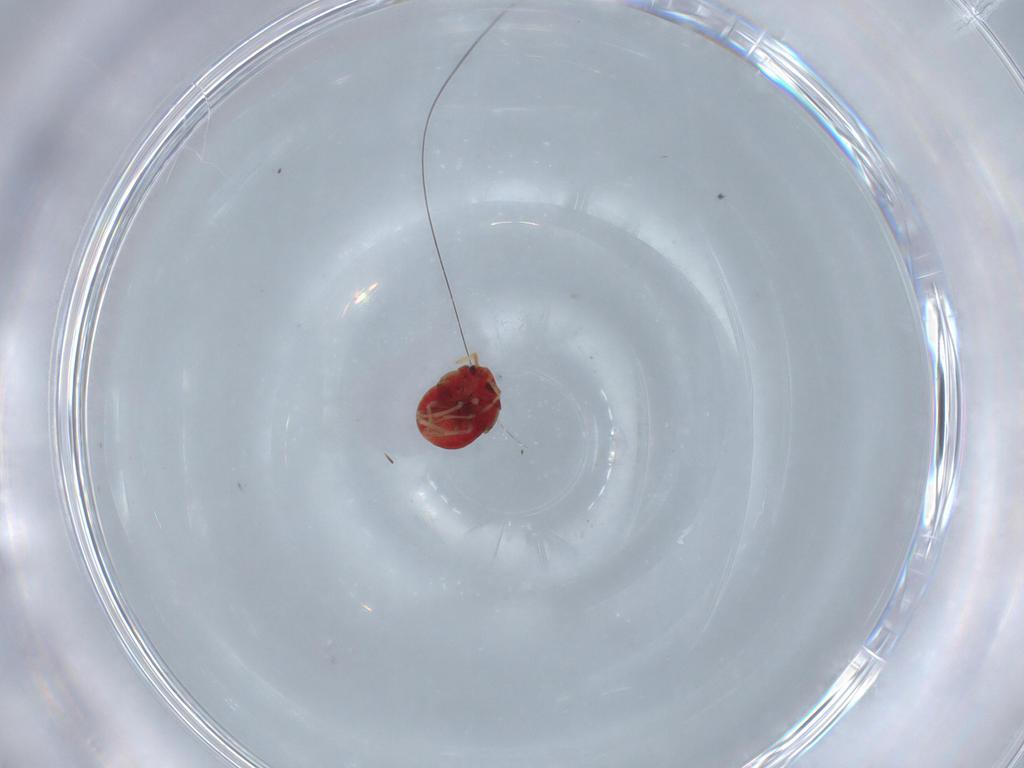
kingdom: Animalia
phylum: Arthropoda
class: Insecta
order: Hemiptera
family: Anthocoridae
